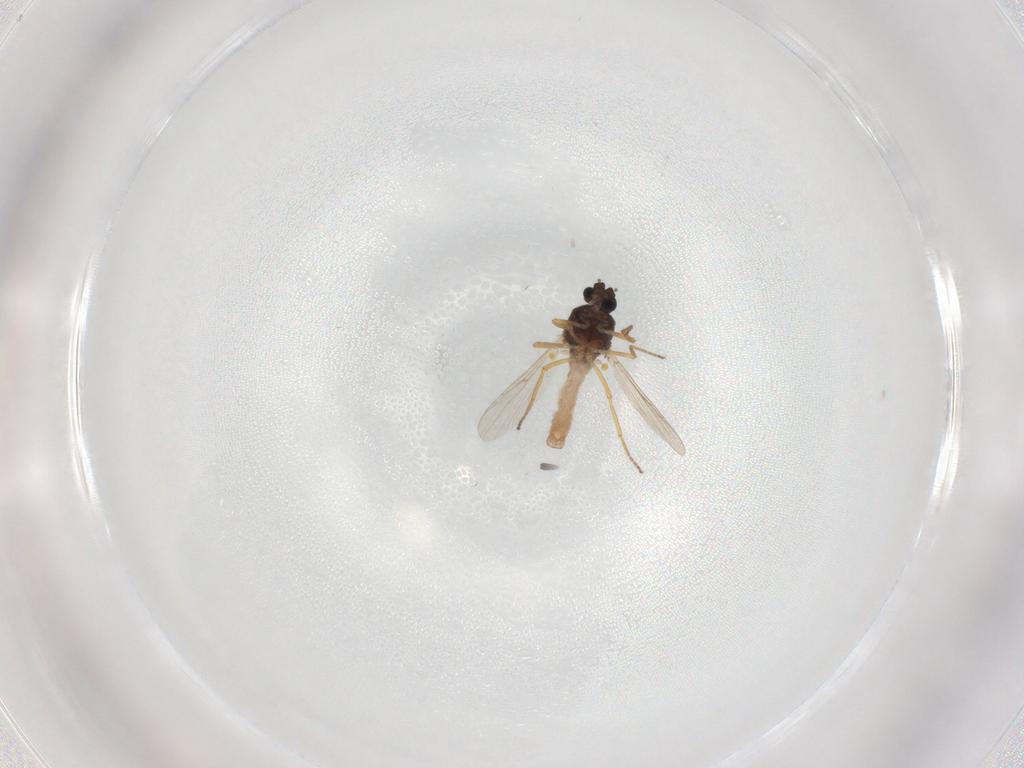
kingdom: Animalia
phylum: Arthropoda
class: Insecta
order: Diptera
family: Ceratopogonidae
